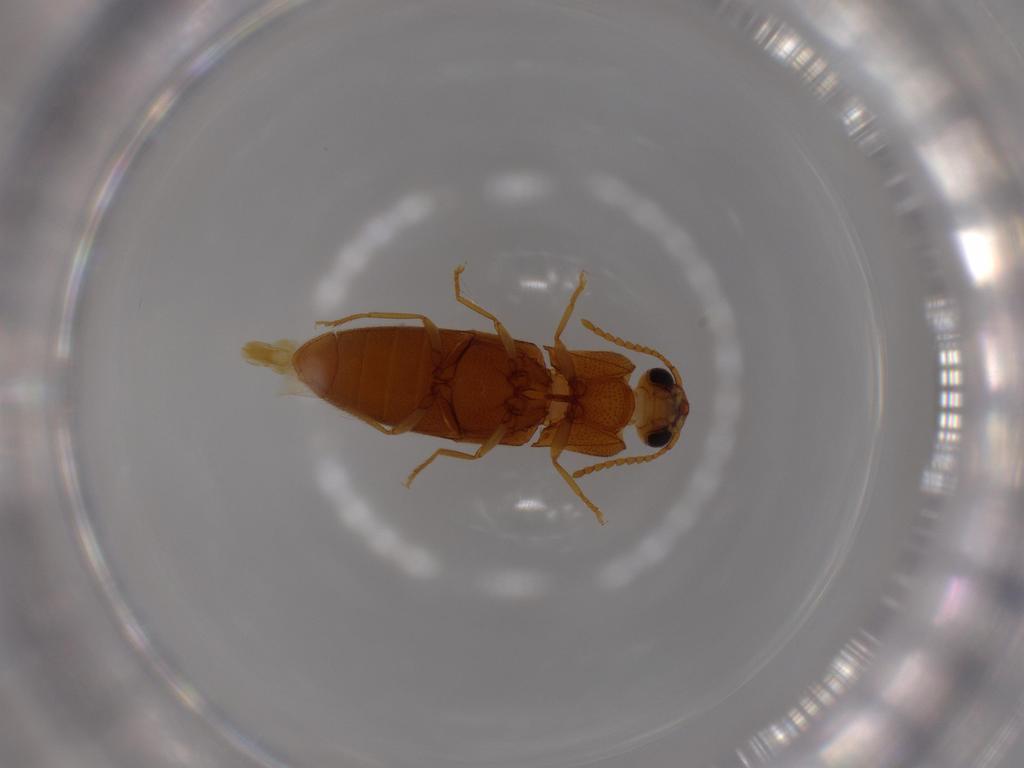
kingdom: Animalia
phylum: Arthropoda
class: Insecta
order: Coleoptera
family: Elateridae
